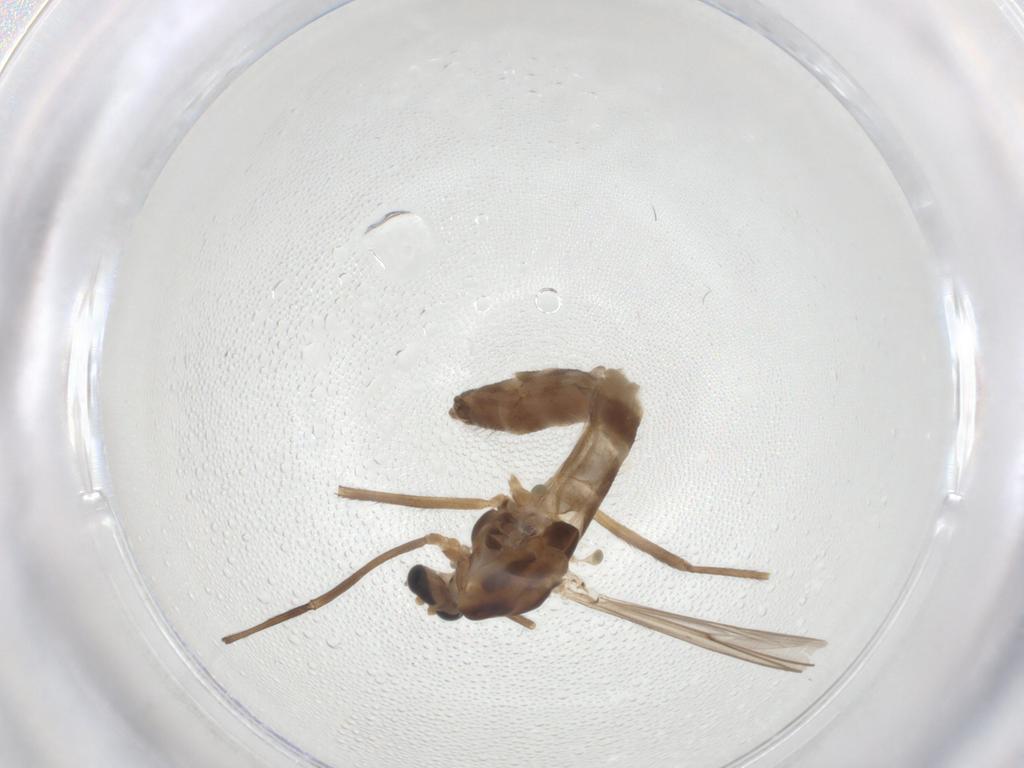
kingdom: Animalia
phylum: Arthropoda
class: Insecta
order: Diptera
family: Chironomidae
